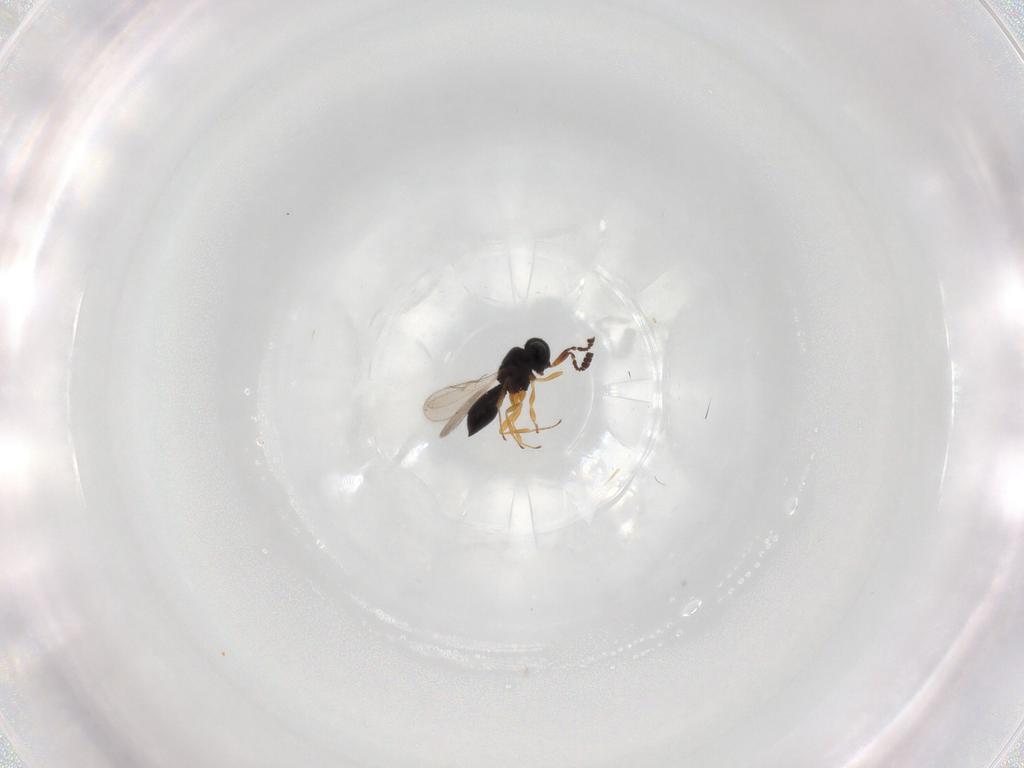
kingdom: Animalia
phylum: Arthropoda
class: Insecta
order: Hymenoptera
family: Scelionidae
